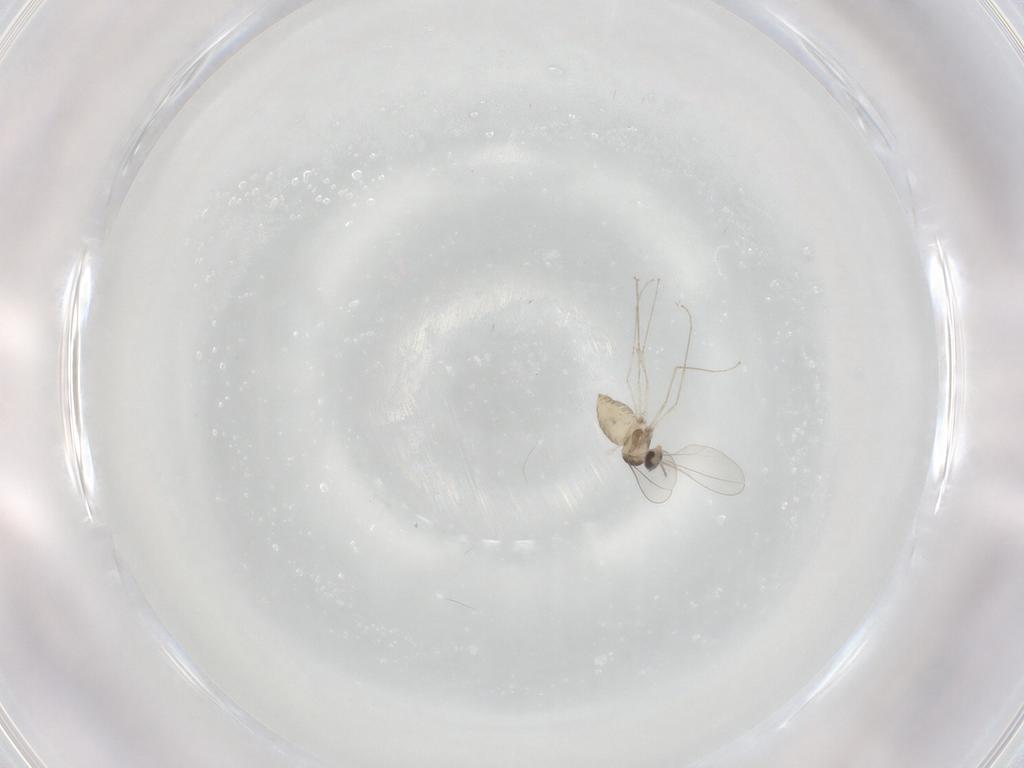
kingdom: Animalia
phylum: Arthropoda
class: Insecta
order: Diptera
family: Cecidomyiidae
